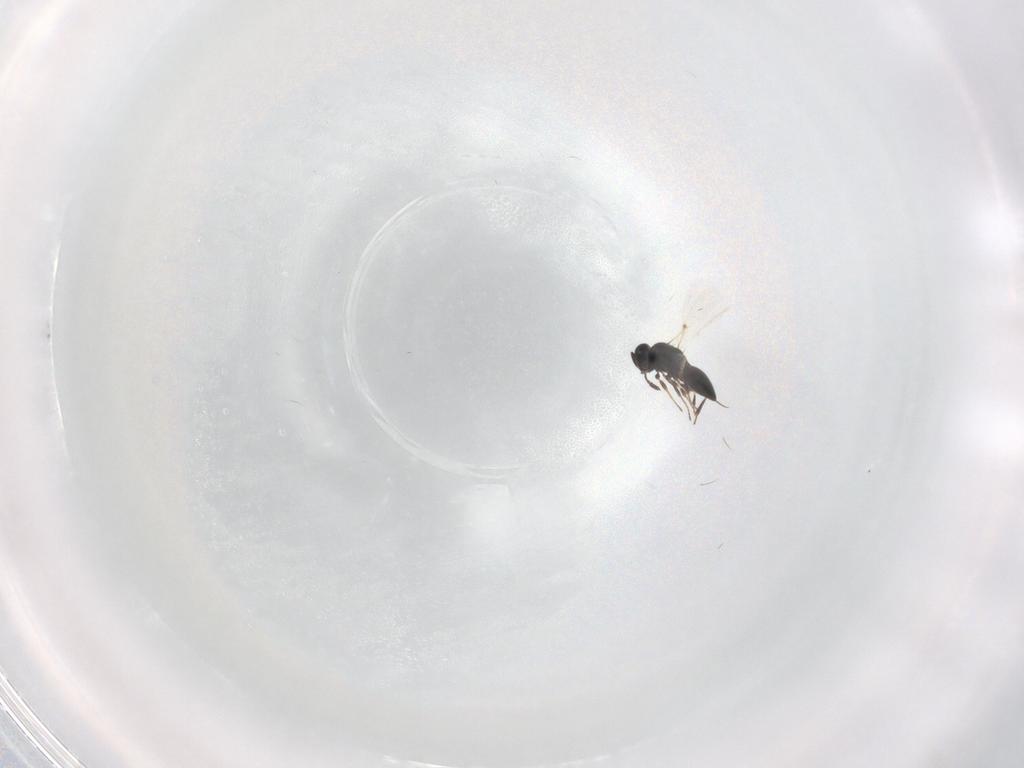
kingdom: Animalia
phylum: Arthropoda
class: Insecta
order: Hymenoptera
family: Platygastridae
